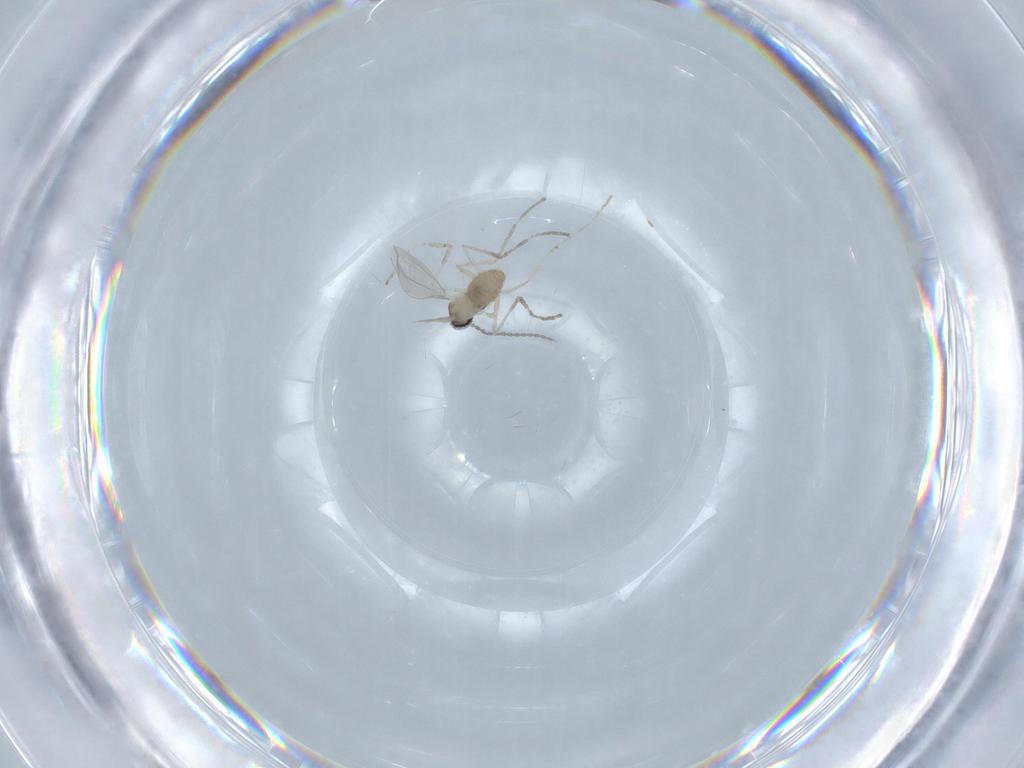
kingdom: Animalia
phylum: Arthropoda
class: Insecta
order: Diptera
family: Cecidomyiidae
